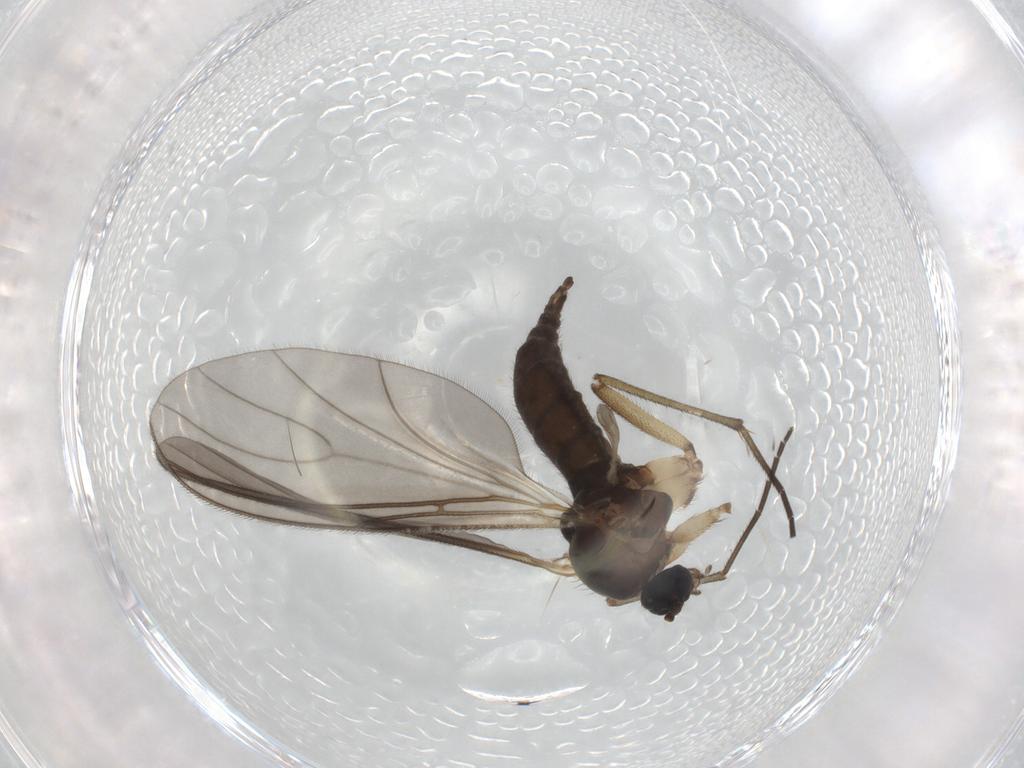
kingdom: Animalia
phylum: Arthropoda
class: Insecta
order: Diptera
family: Sciaridae
